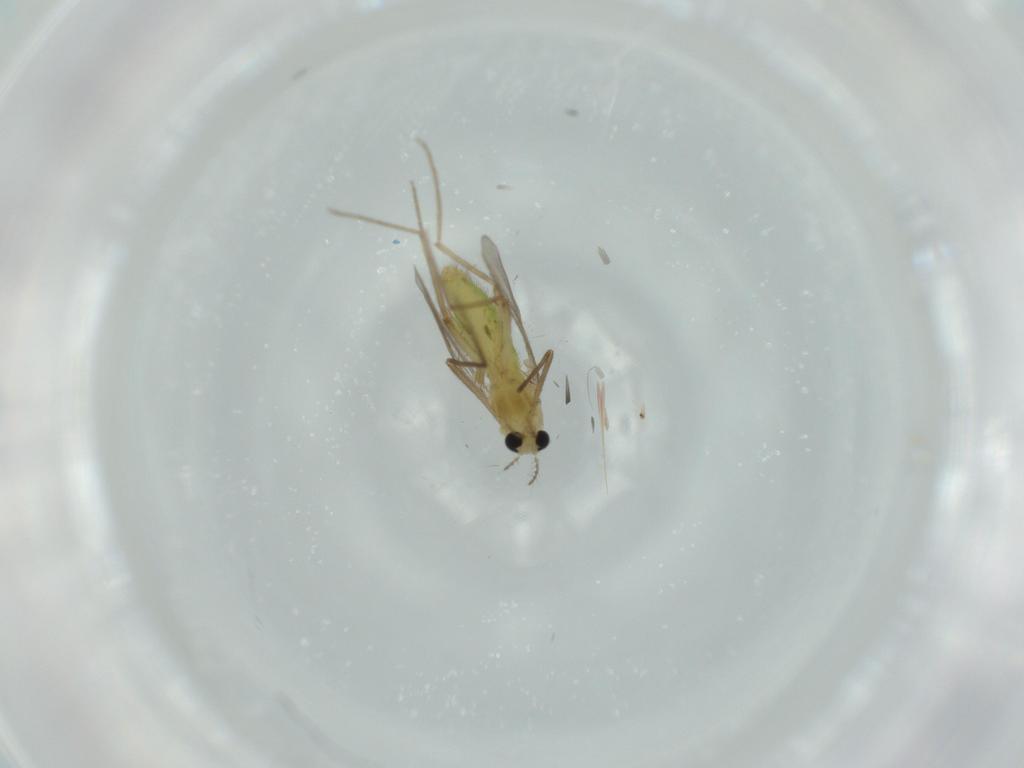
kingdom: Animalia
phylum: Arthropoda
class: Insecta
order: Diptera
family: Chironomidae
